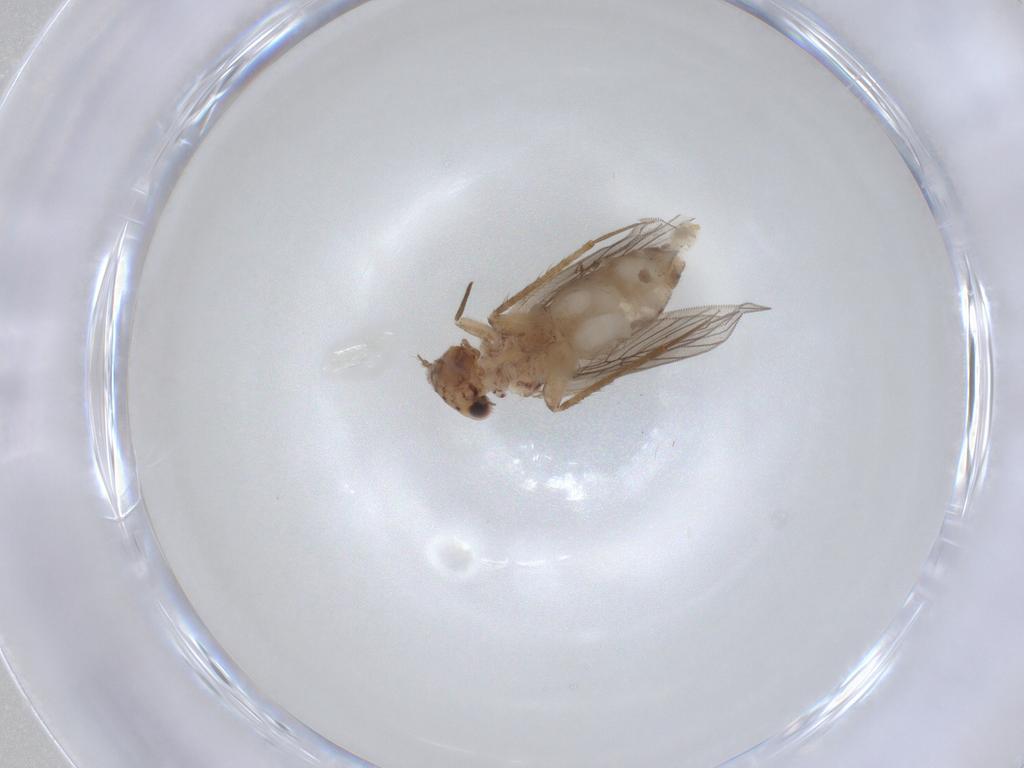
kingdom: Animalia
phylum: Arthropoda
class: Insecta
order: Psocodea
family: Lepidopsocidae
